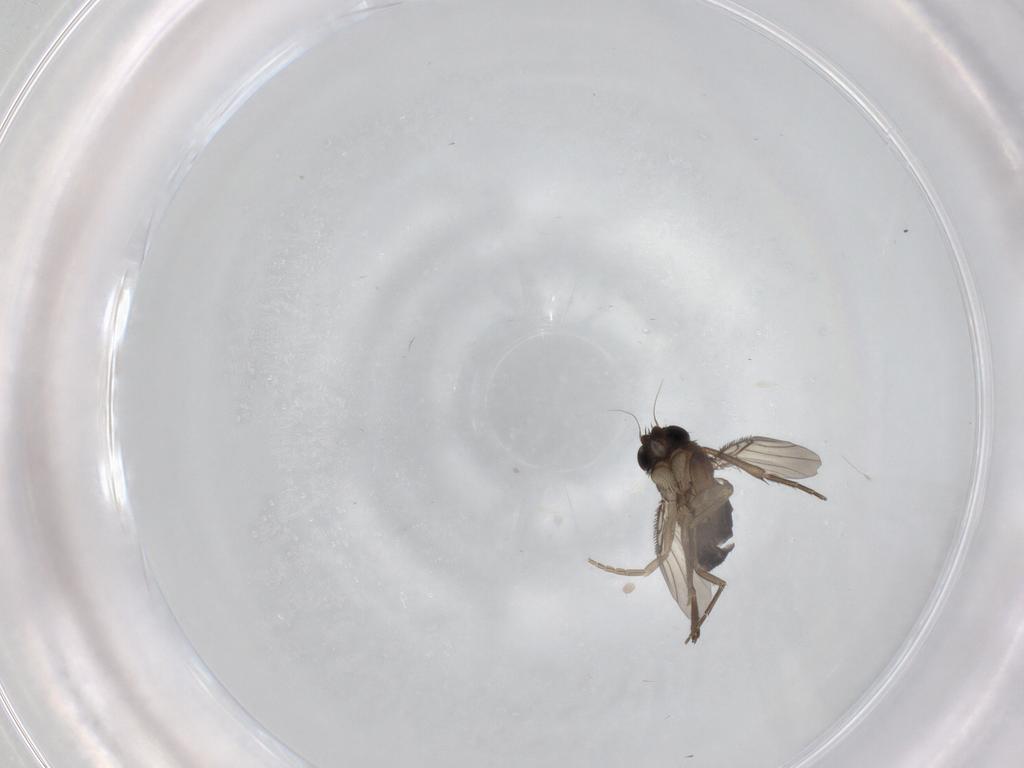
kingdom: Animalia
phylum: Arthropoda
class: Insecta
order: Diptera
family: Phoridae
